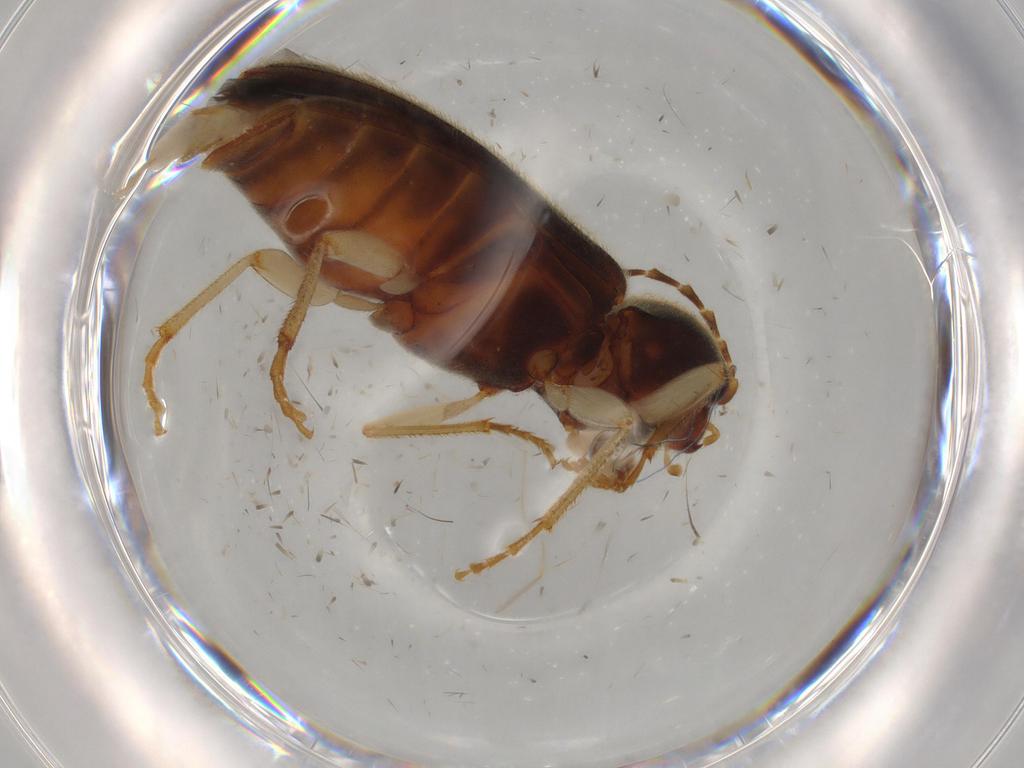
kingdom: Animalia
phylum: Arthropoda
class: Insecta
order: Coleoptera
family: Elateridae
